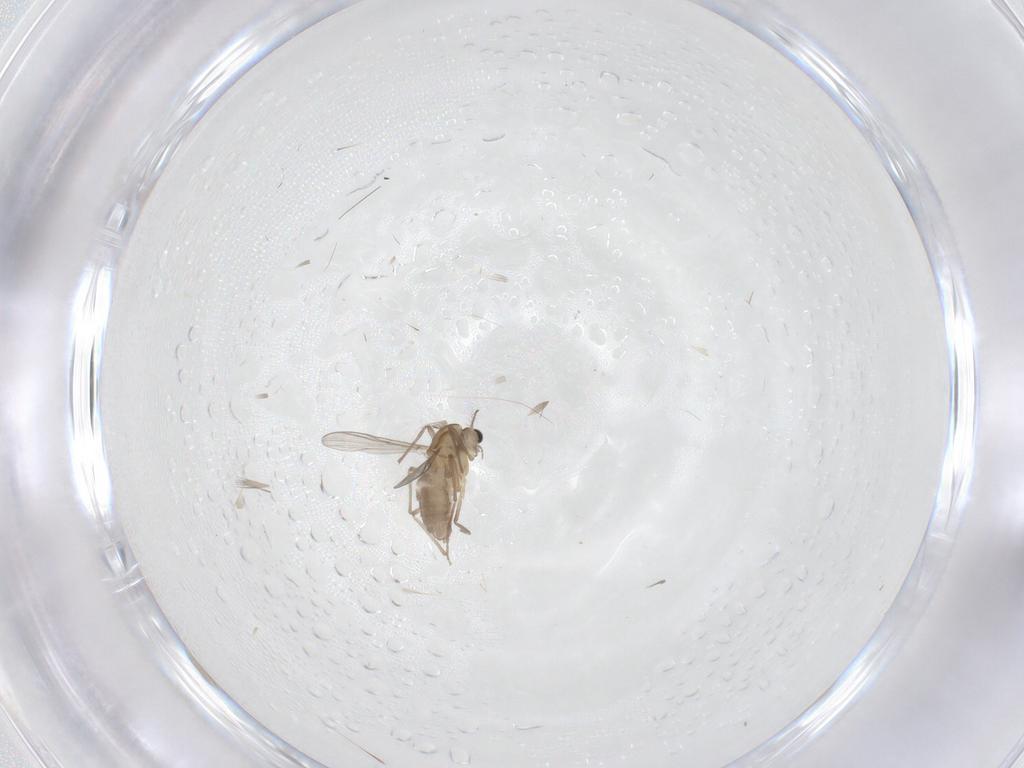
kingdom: Animalia
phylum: Arthropoda
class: Insecta
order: Diptera
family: Chironomidae
